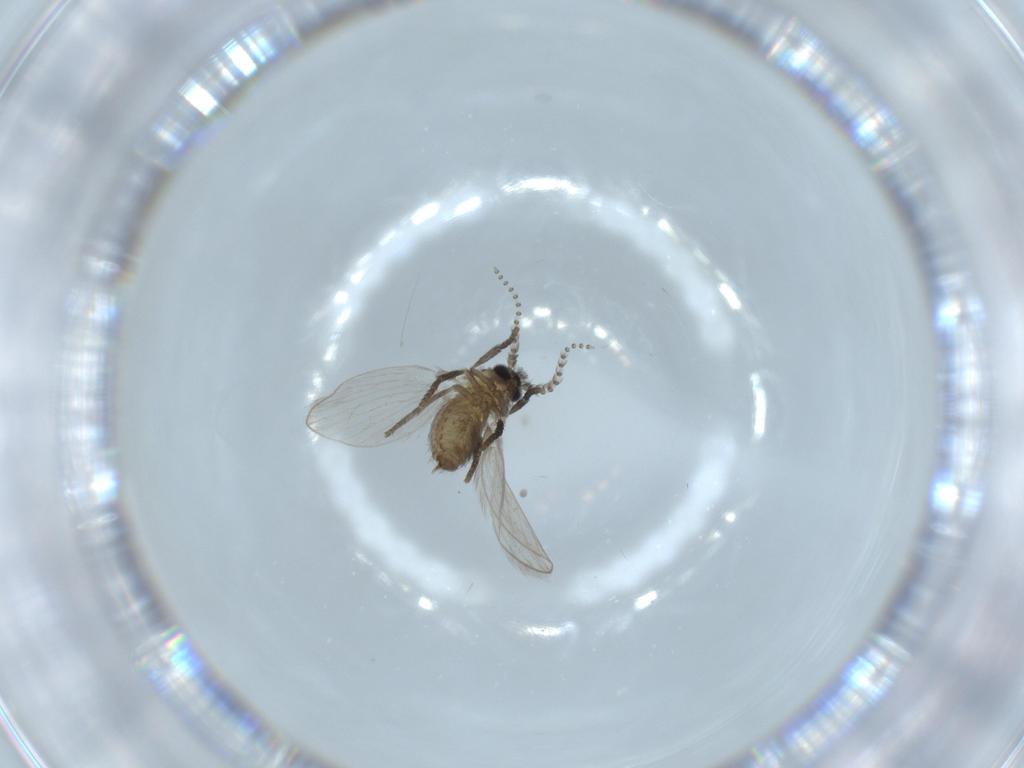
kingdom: Animalia
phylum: Arthropoda
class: Insecta
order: Diptera
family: Psychodidae
